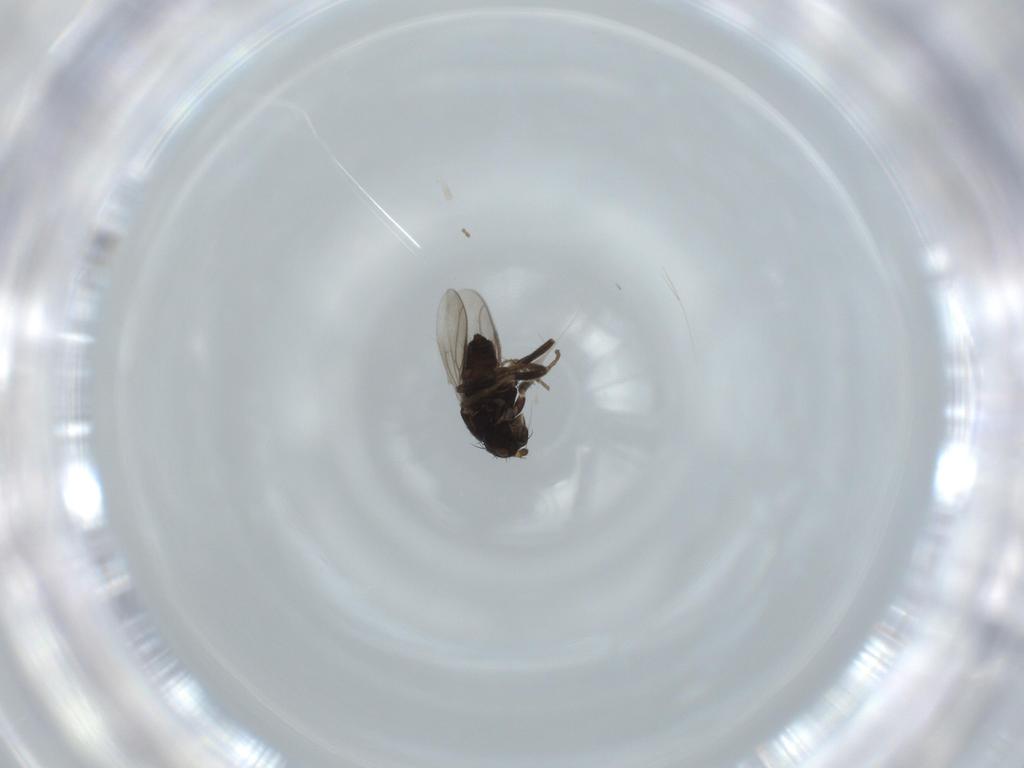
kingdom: Animalia
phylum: Arthropoda
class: Insecta
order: Diptera
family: Sphaeroceridae
